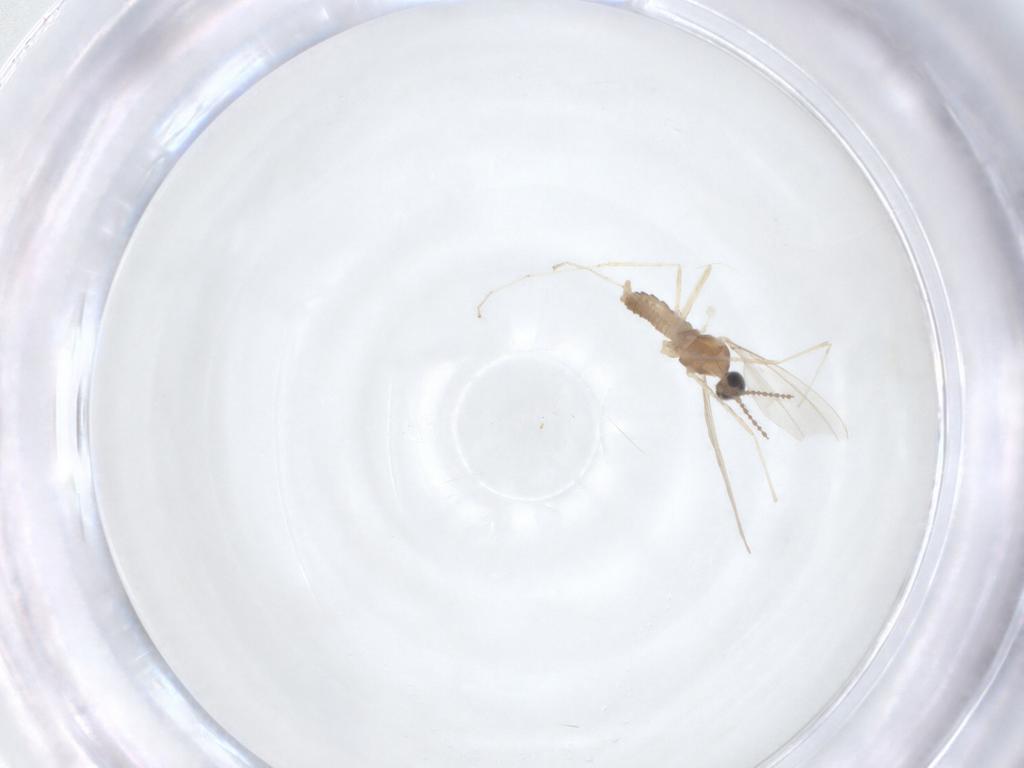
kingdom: Animalia
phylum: Arthropoda
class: Insecta
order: Diptera
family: Cecidomyiidae
